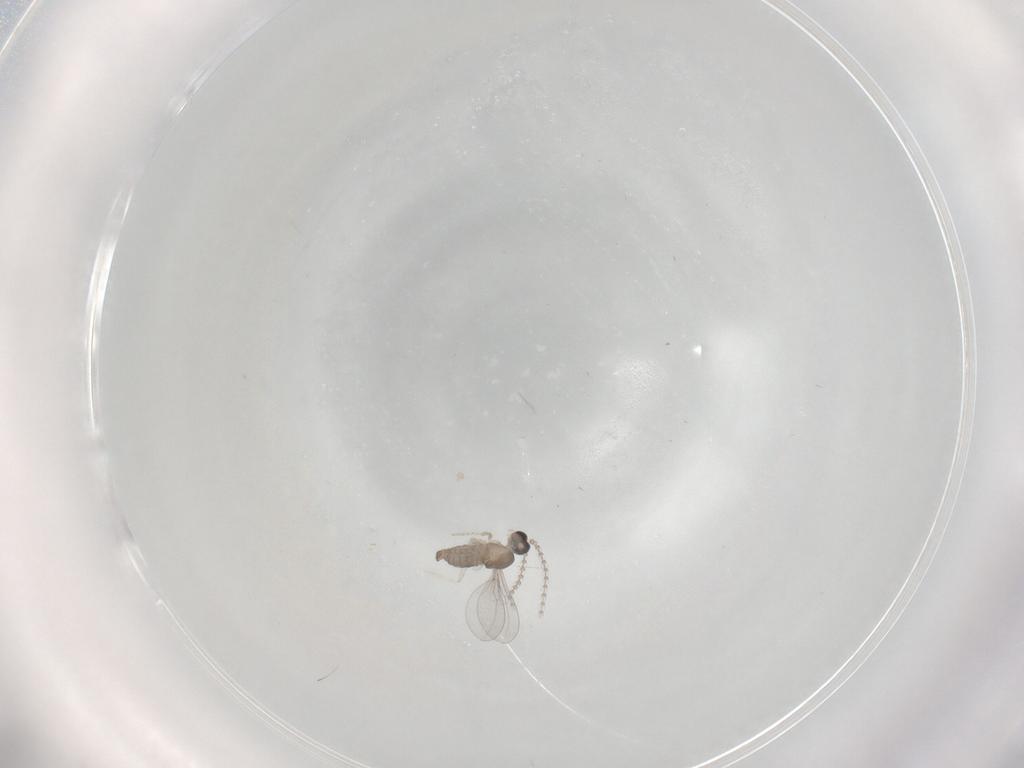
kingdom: Animalia
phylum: Arthropoda
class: Insecta
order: Diptera
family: Cecidomyiidae
